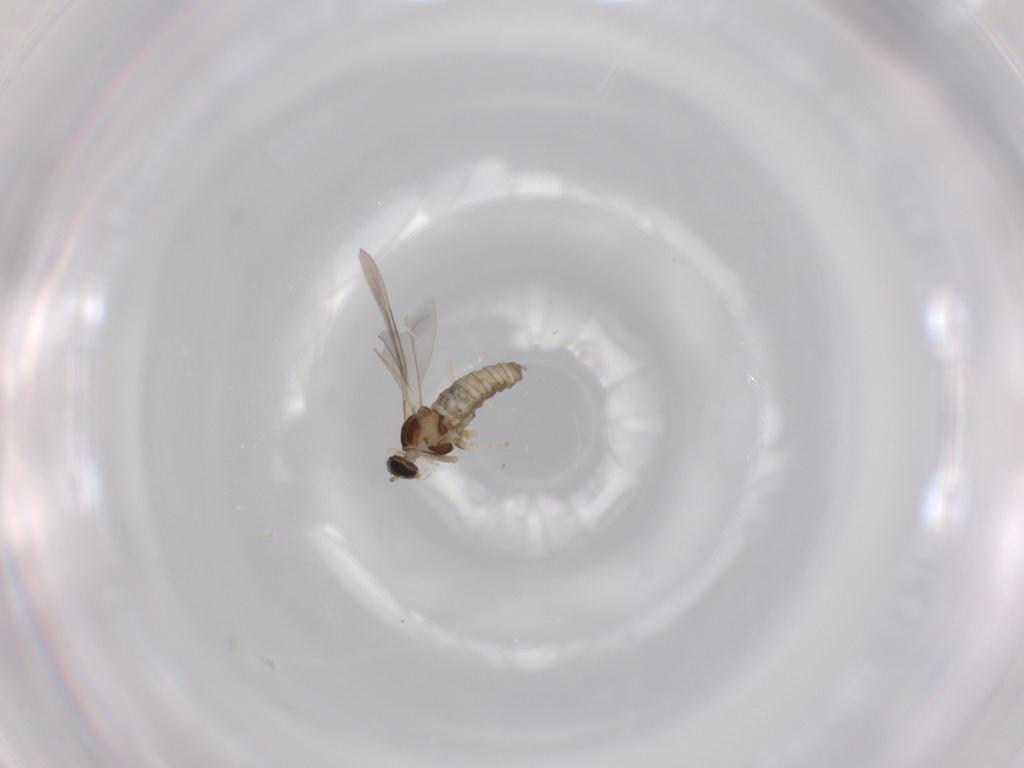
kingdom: Animalia
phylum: Arthropoda
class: Insecta
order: Diptera
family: Cecidomyiidae
